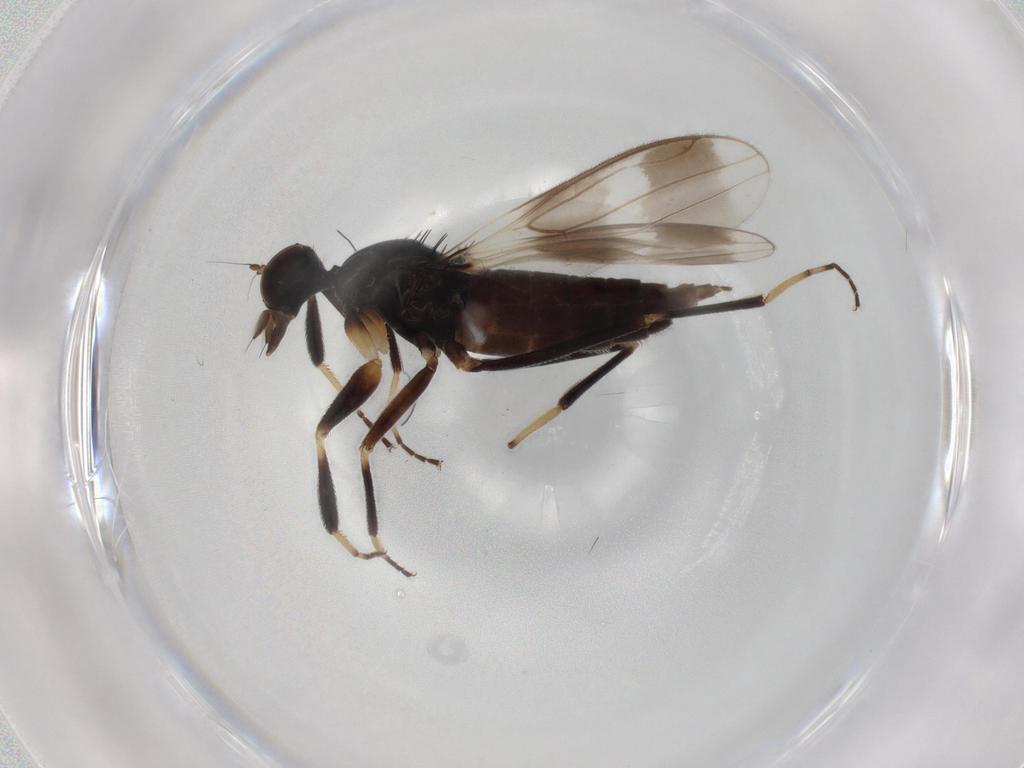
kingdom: Animalia
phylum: Arthropoda
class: Insecta
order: Diptera
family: Hybotidae
